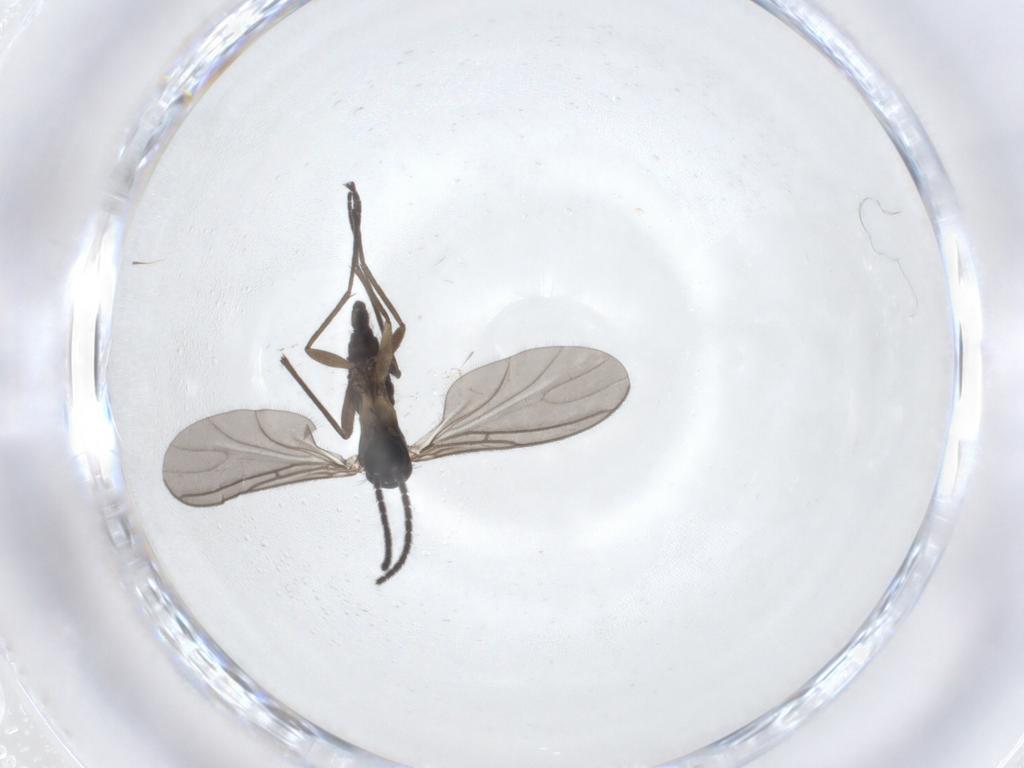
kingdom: Animalia
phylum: Arthropoda
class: Insecta
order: Diptera
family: Sciaridae
